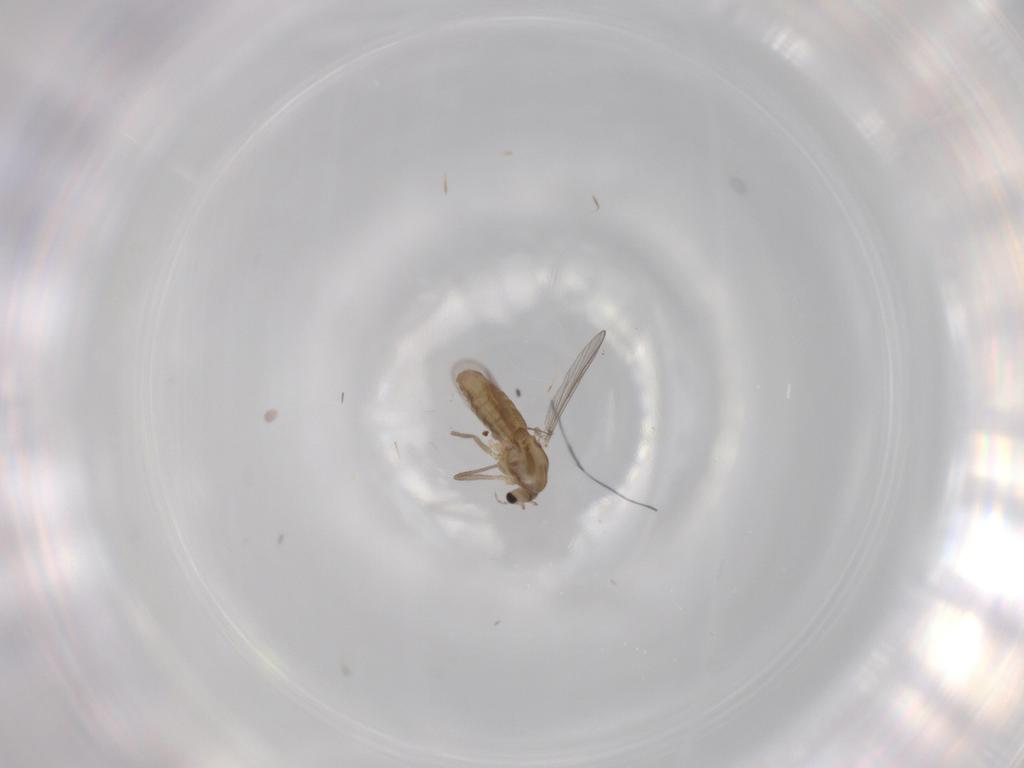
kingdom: Animalia
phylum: Arthropoda
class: Insecta
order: Diptera
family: Chironomidae
